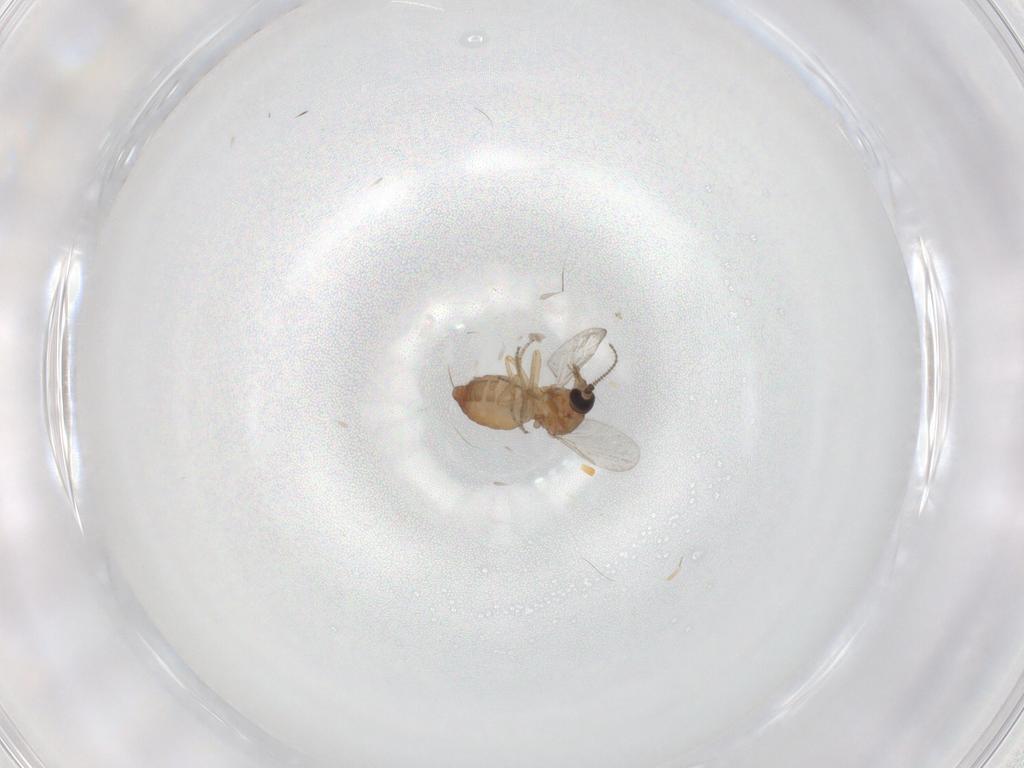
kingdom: Animalia
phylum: Arthropoda
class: Insecta
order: Diptera
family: Ceratopogonidae
